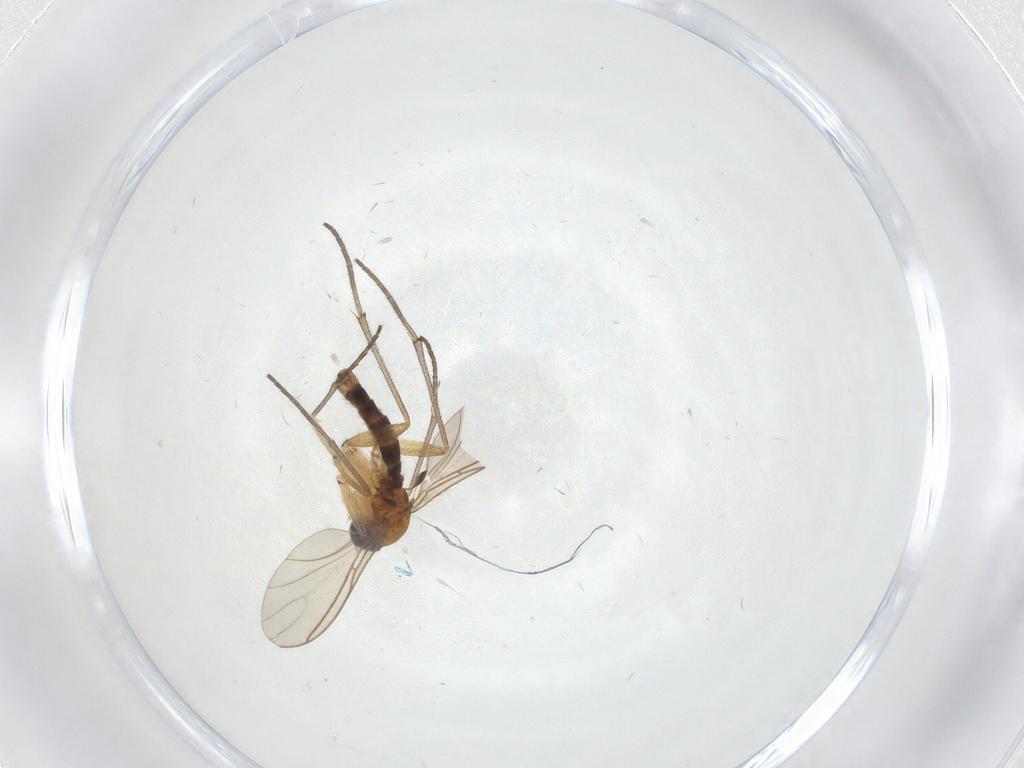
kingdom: Animalia
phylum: Arthropoda
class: Insecta
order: Diptera
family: Sciaridae
